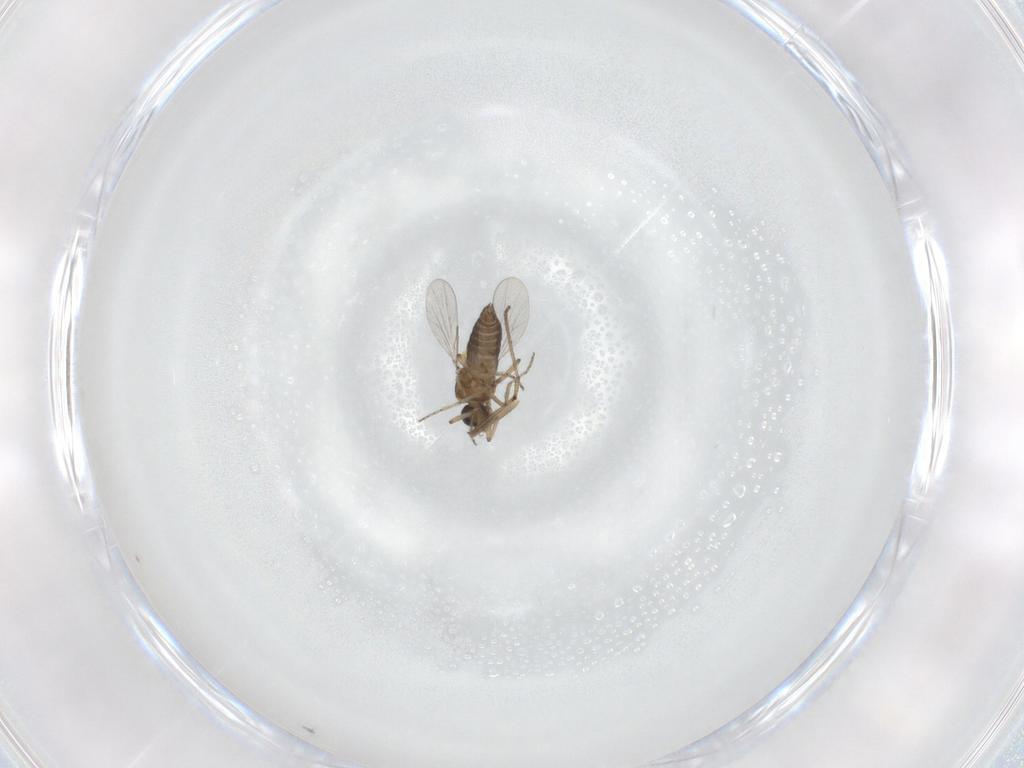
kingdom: Animalia
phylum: Arthropoda
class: Insecta
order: Diptera
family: Ceratopogonidae
